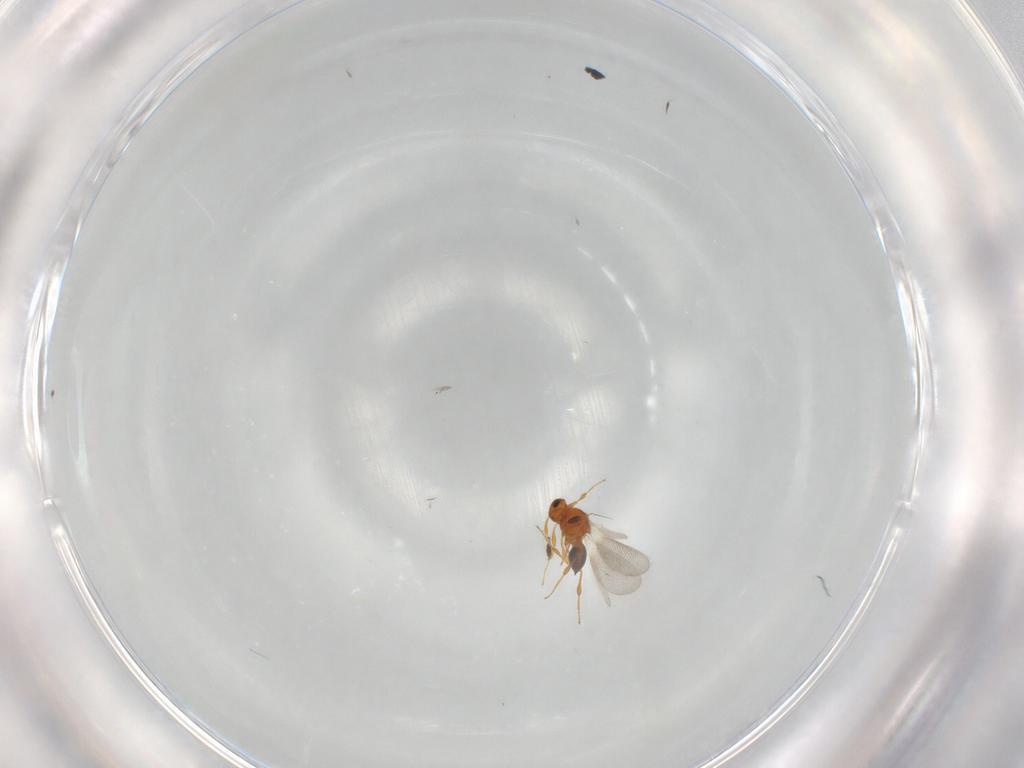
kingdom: Animalia
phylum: Arthropoda
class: Insecta
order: Hymenoptera
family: Platygastridae
